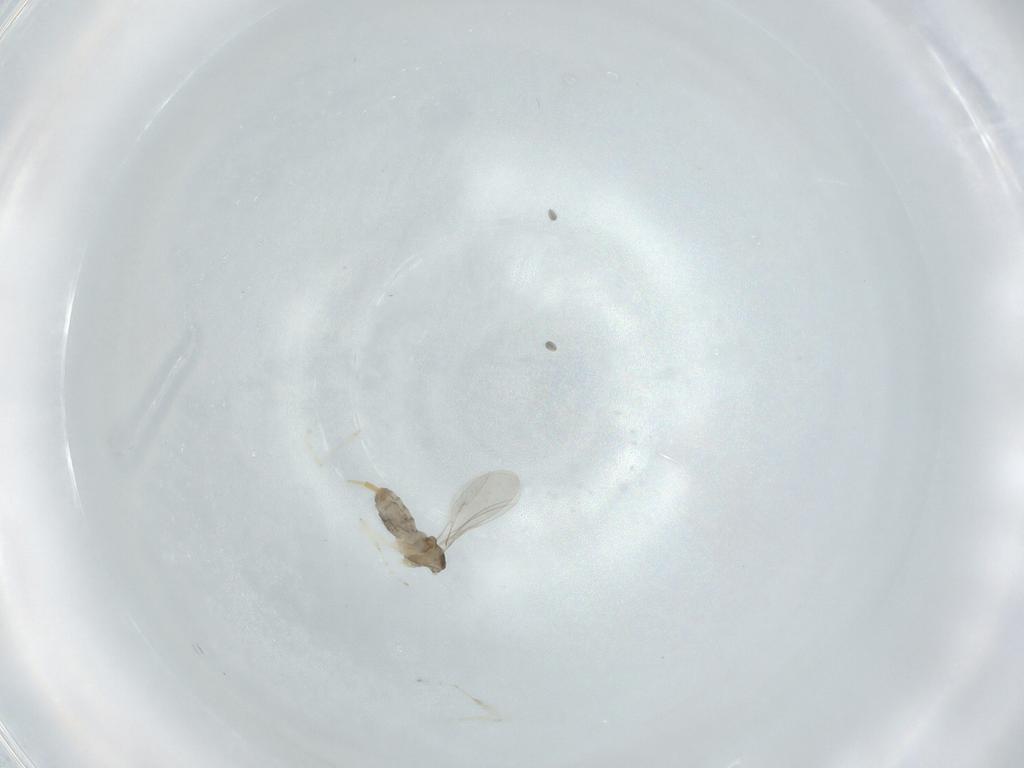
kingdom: Animalia
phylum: Arthropoda
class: Insecta
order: Diptera
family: Cecidomyiidae
